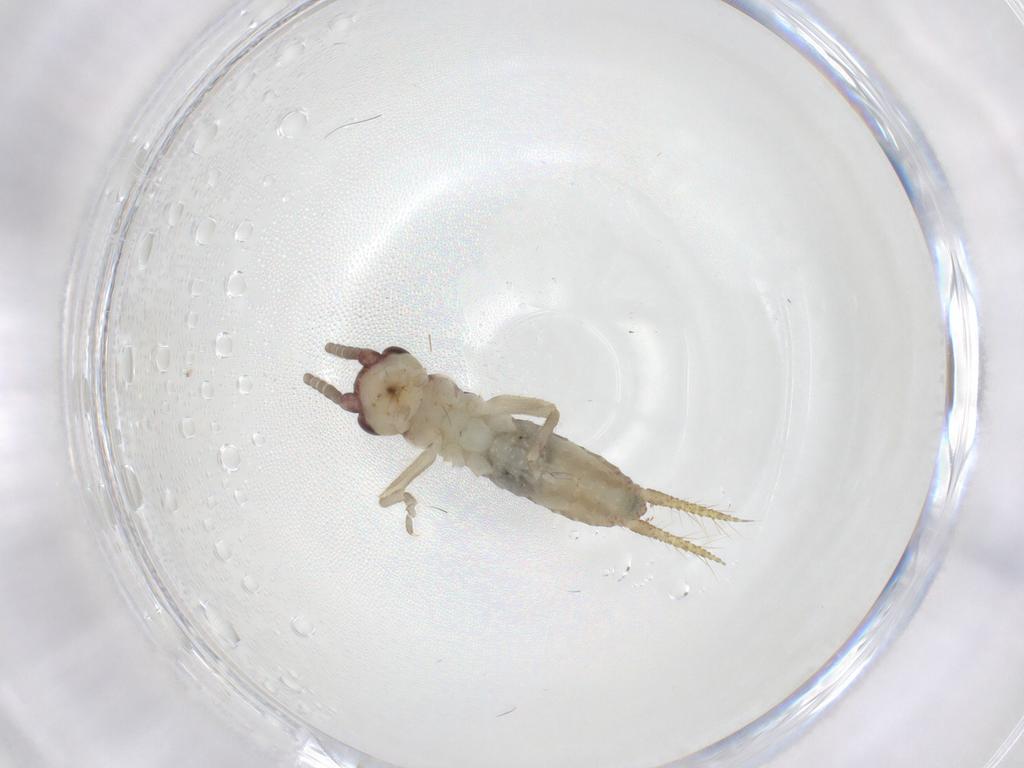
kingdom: Animalia
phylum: Arthropoda
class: Insecta
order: Orthoptera
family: Gryllidae
